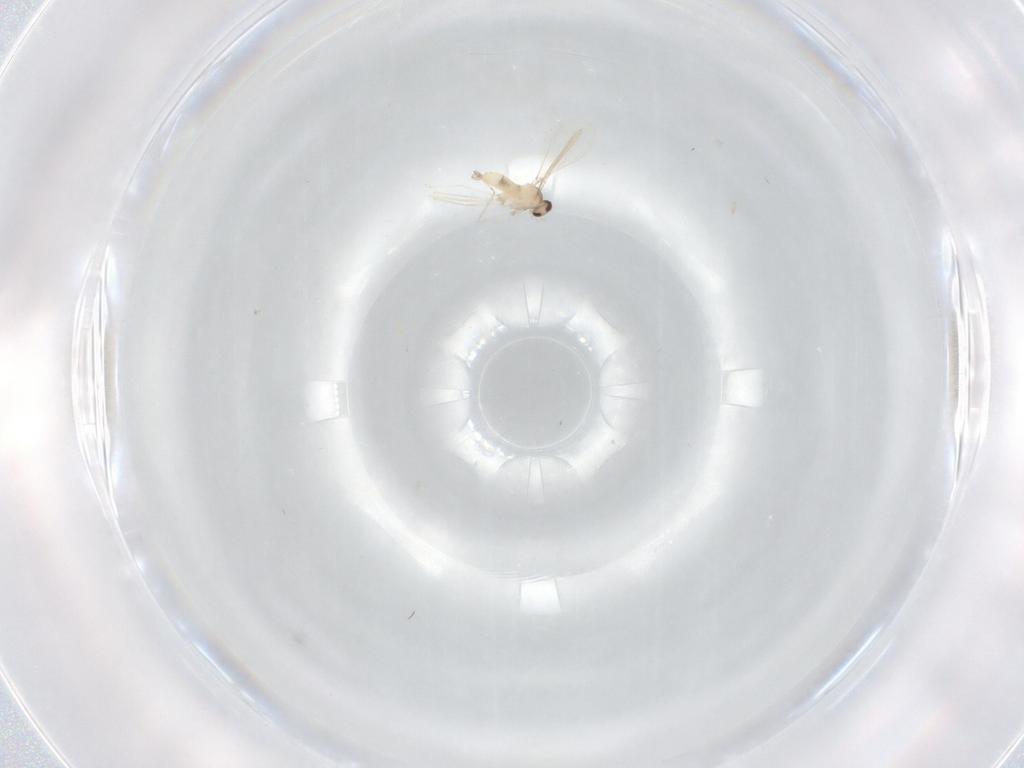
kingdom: Animalia
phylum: Arthropoda
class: Insecta
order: Diptera
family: Cecidomyiidae
